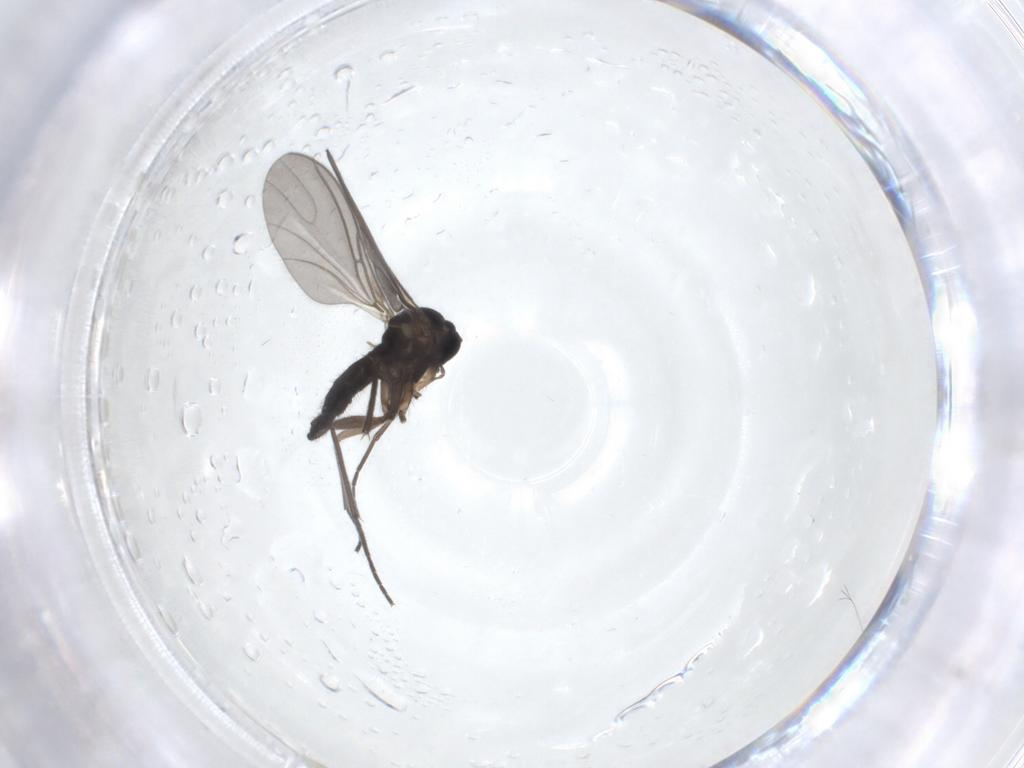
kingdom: Animalia
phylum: Arthropoda
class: Insecta
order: Diptera
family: Sciaridae
